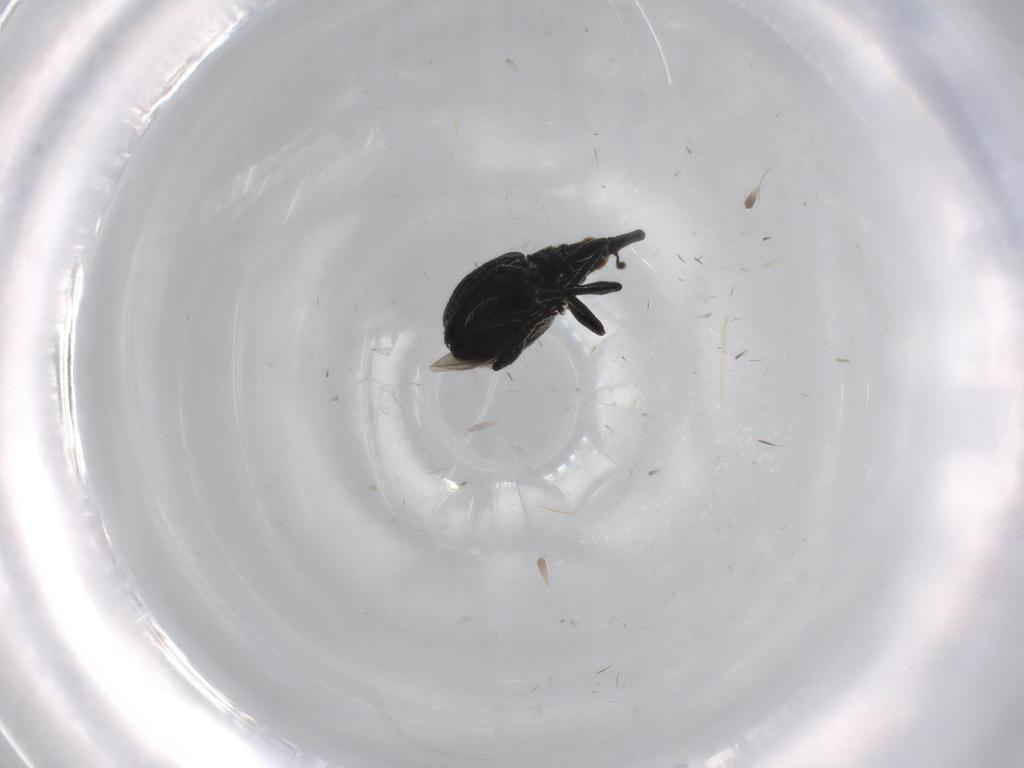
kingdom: Animalia
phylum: Arthropoda
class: Insecta
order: Coleoptera
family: Brentidae
